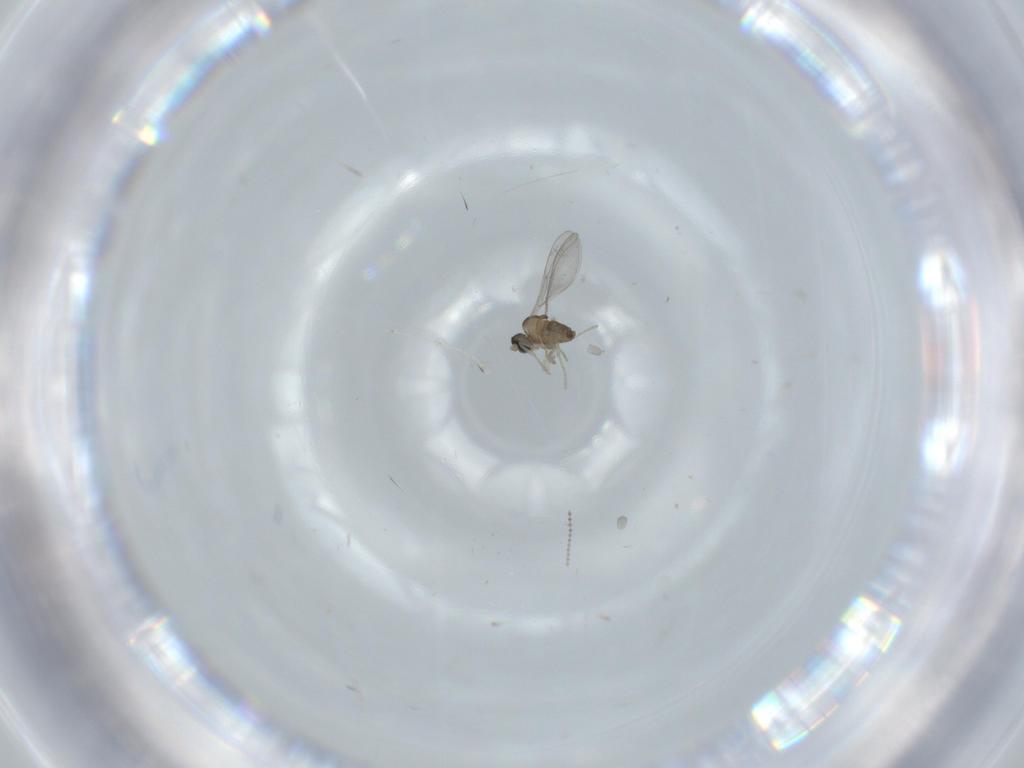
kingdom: Animalia
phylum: Arthropoda
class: Insecta
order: Diptera
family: Cecidomyiidae
